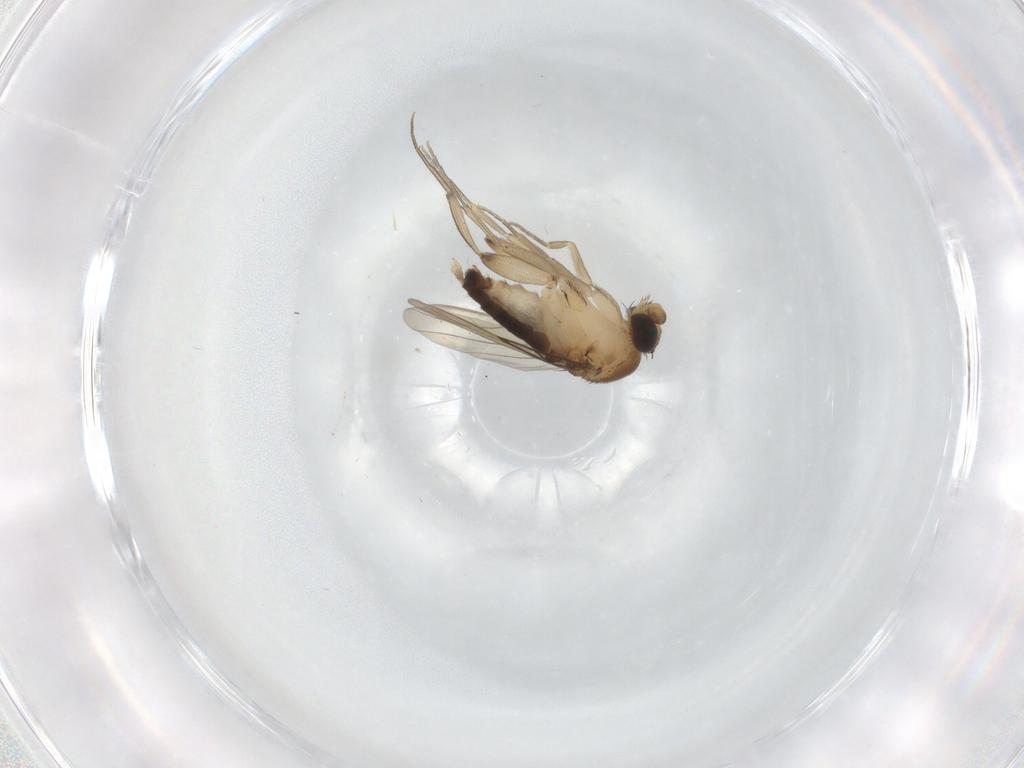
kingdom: Animalia
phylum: Arthropoda
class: Insecta
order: Diptera
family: Phoridae
